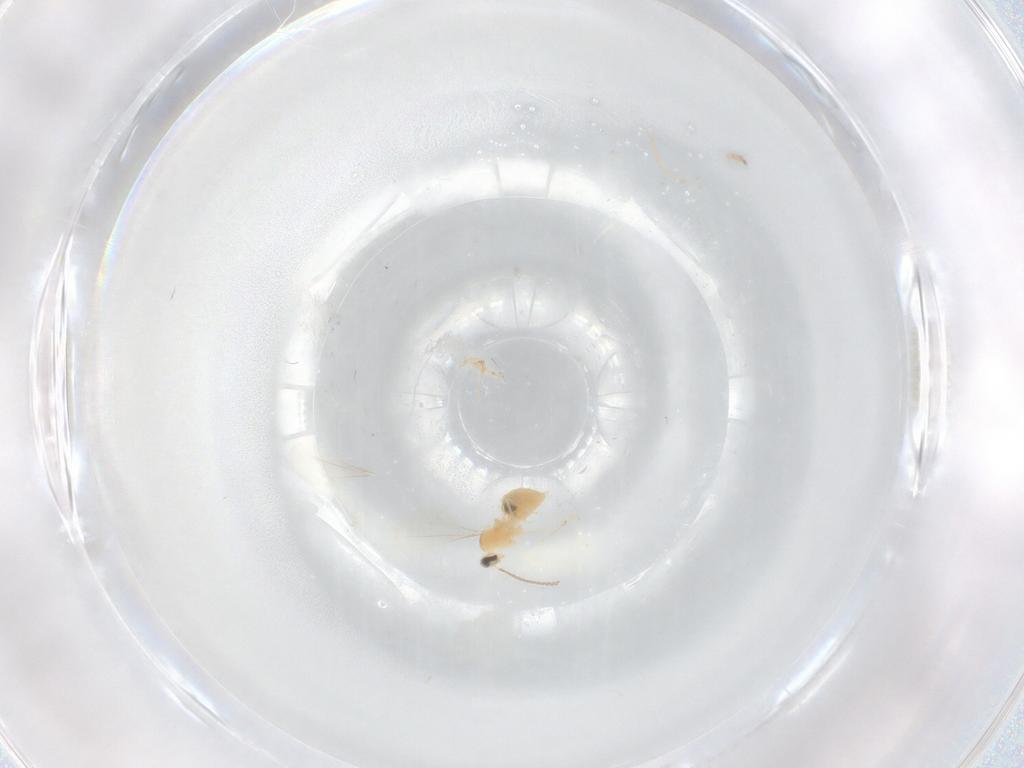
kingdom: Animalia
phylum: Arthropoda
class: Insecta
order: Diptera
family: Cecidomyiidae
